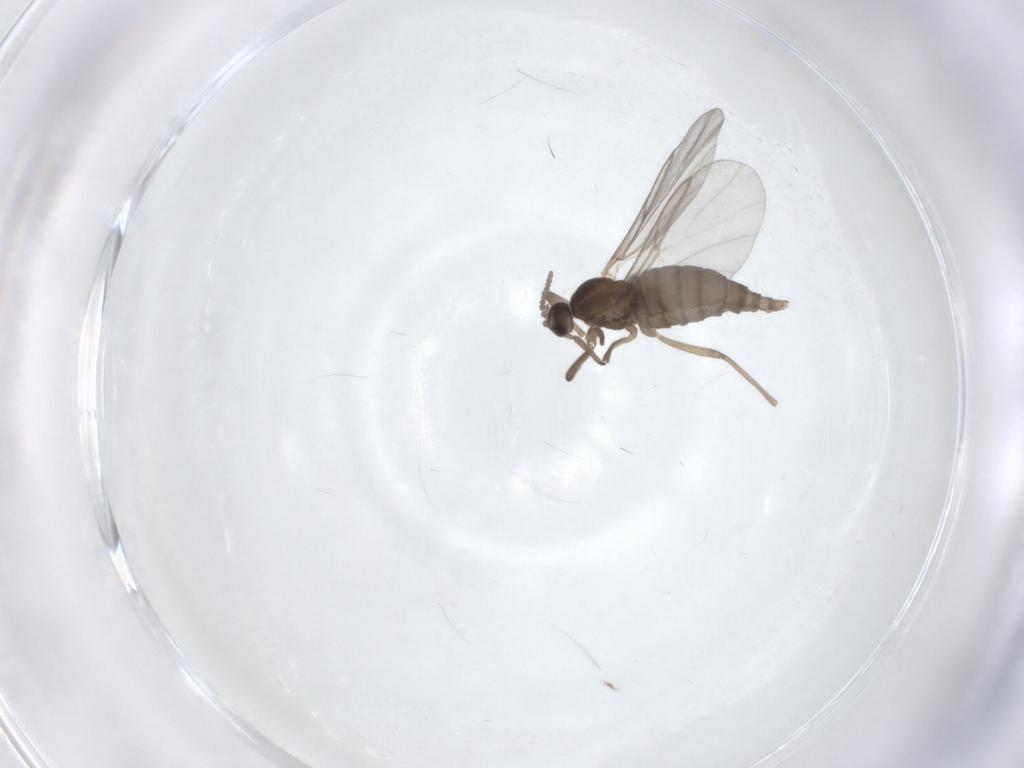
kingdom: Animalia
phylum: Arthropoda
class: Insecta
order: Diptera
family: Cecidomyiidae
